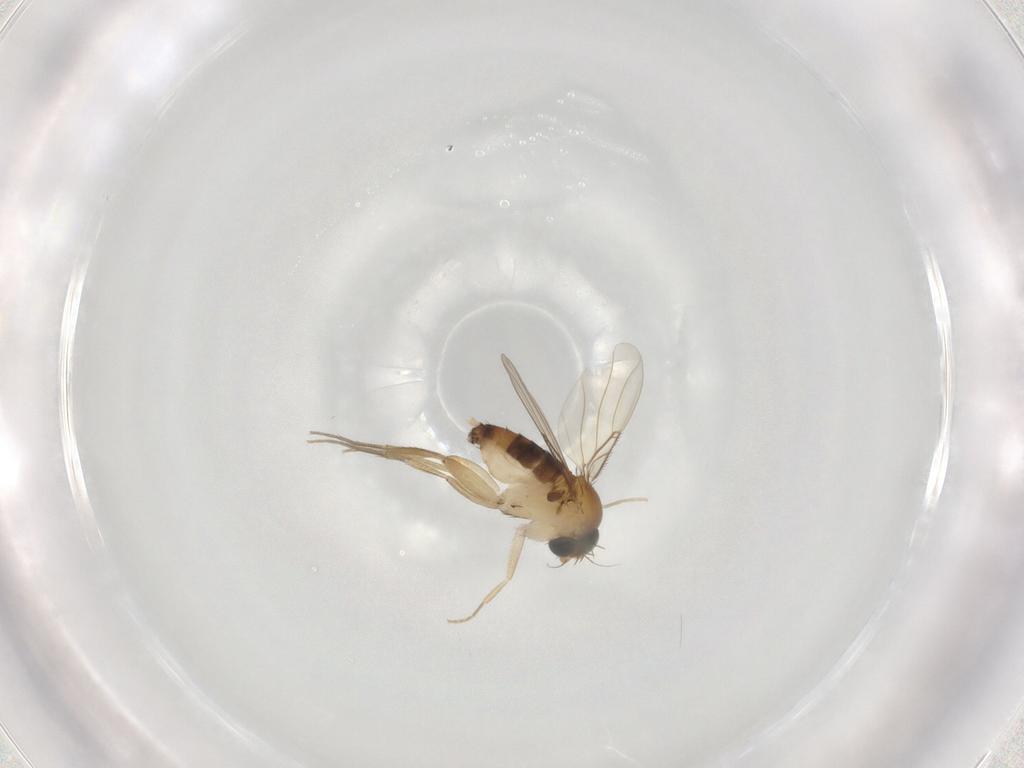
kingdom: Animalia
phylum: Arthropoda
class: Insecta
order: Diptera
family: Phoridae
